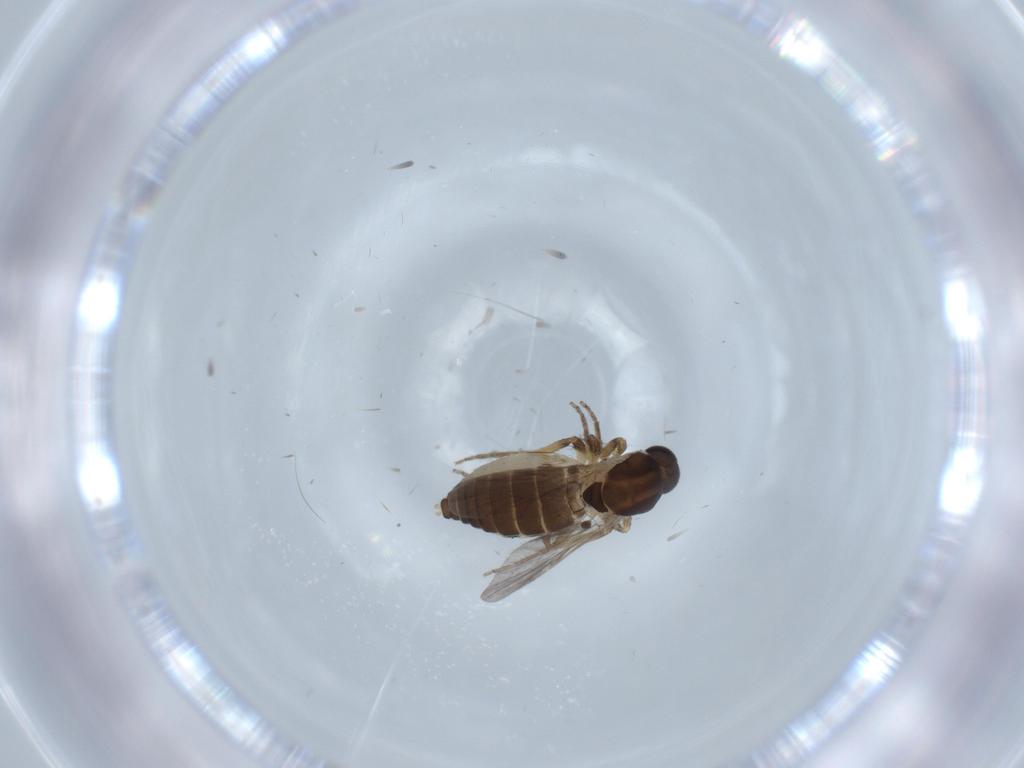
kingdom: Animalia
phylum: Arthropoda
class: Insecta
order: Diptera
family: Ceratopogonidae
